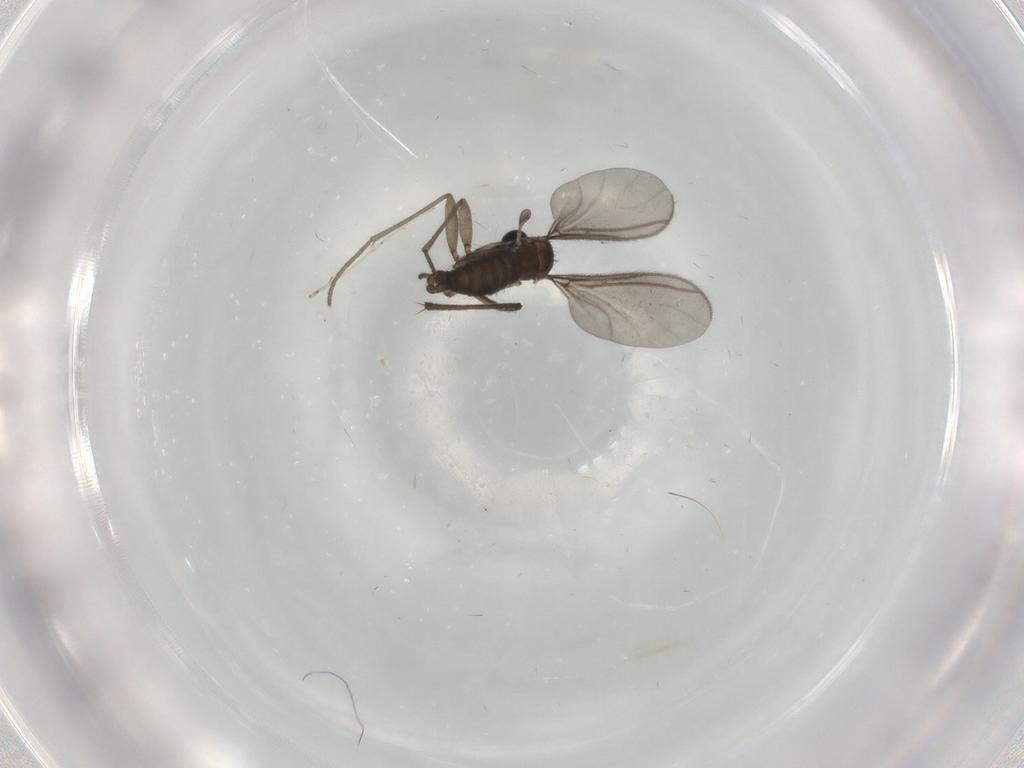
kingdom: Animalia
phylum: Arthropoda
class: Insecta
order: Diptera
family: Sciaridae
